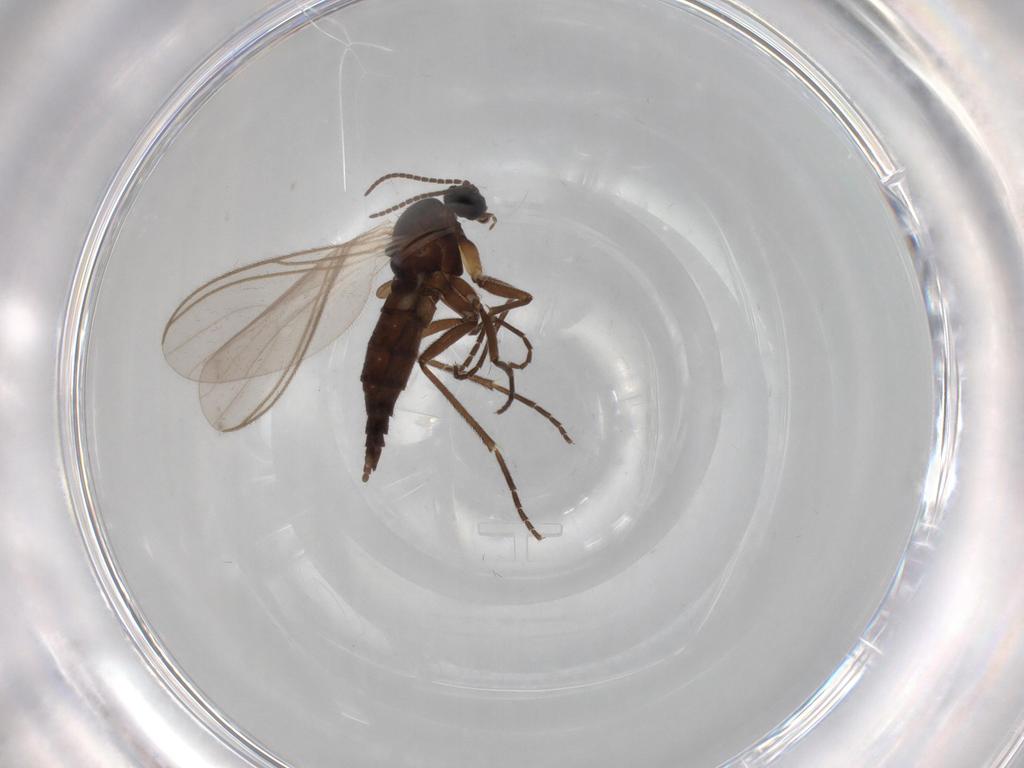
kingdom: Animalia
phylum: Arthropoda
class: Insecta
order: Diptera
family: Sciaridae
